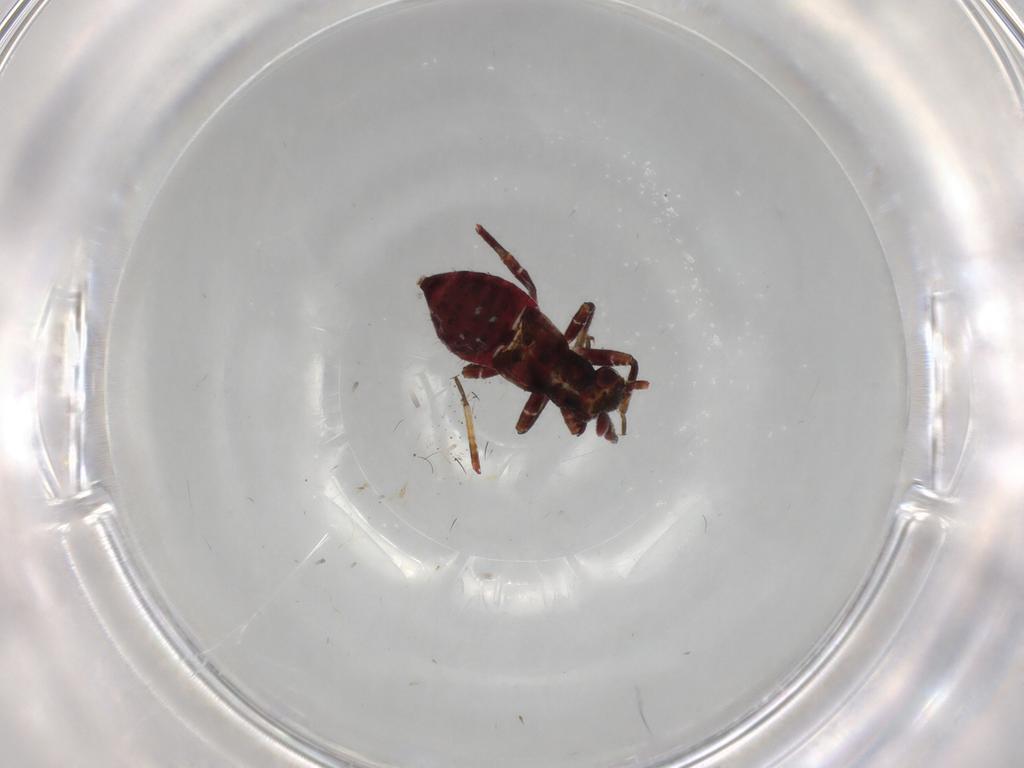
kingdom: Animalia
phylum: Arthropoda
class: Insecta
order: Hemiptera
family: Miridae
